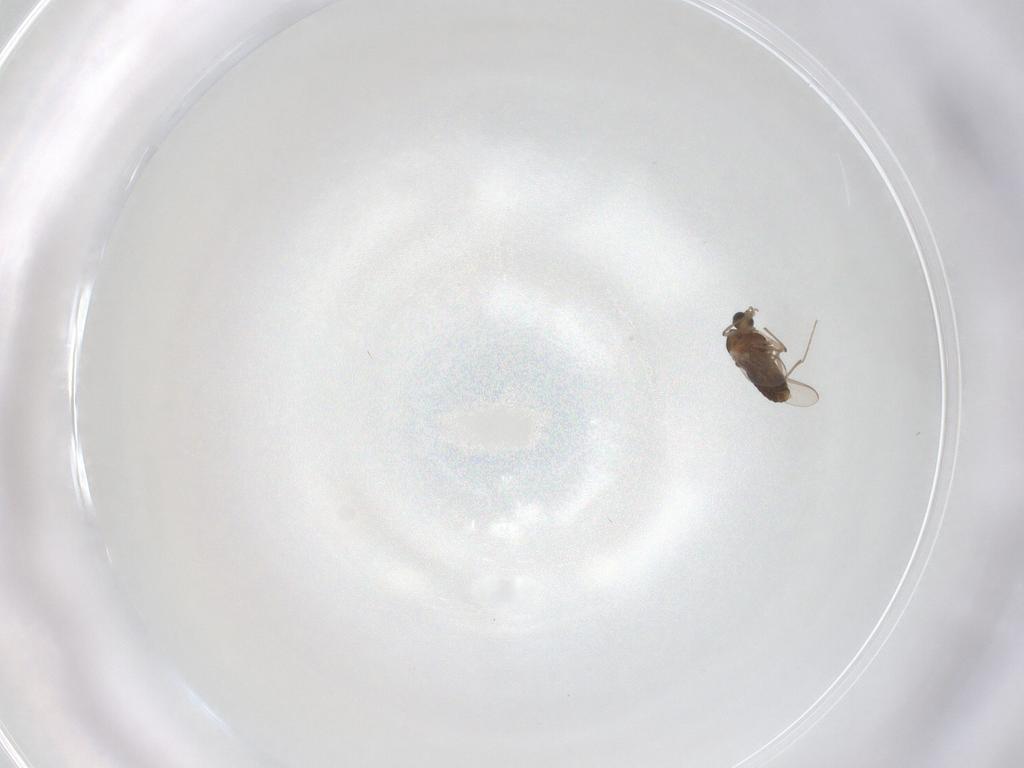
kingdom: Animalia
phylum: Arthropoda
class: Insecta
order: Diptera
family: Chironomidae
